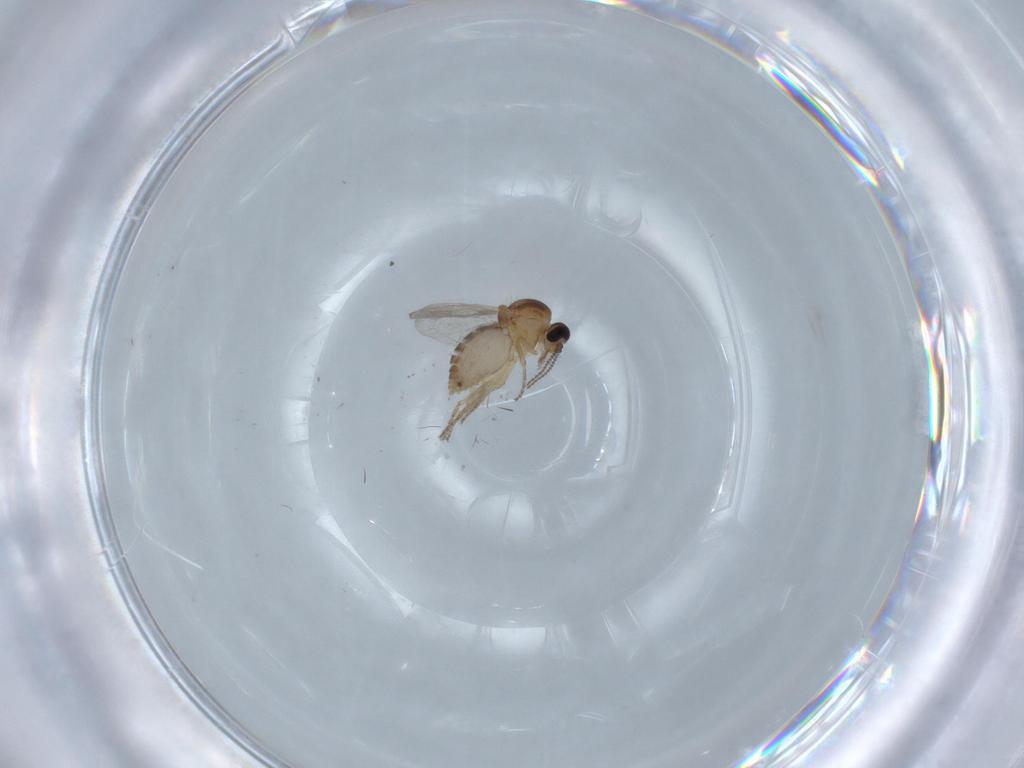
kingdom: Animalia
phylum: Arthropoda
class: Insecta
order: Diptera
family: Ceratopogonidae
